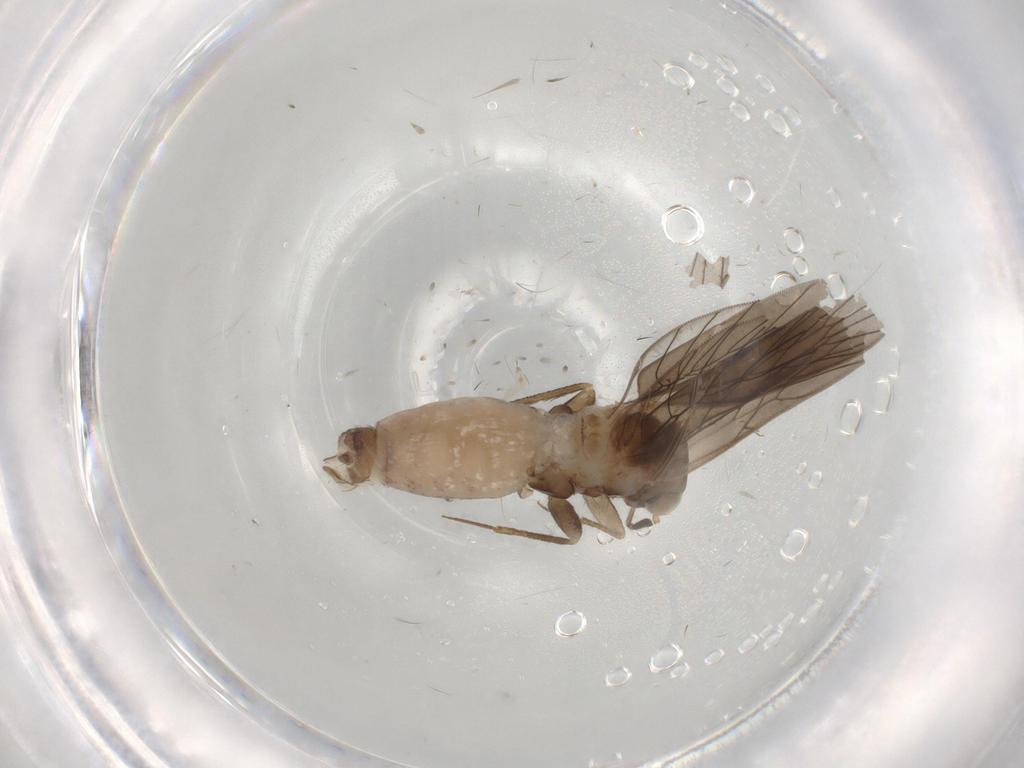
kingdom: Animalia
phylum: Arthropoda
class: Insecta
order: Psocodea
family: Lepidopsocidae
